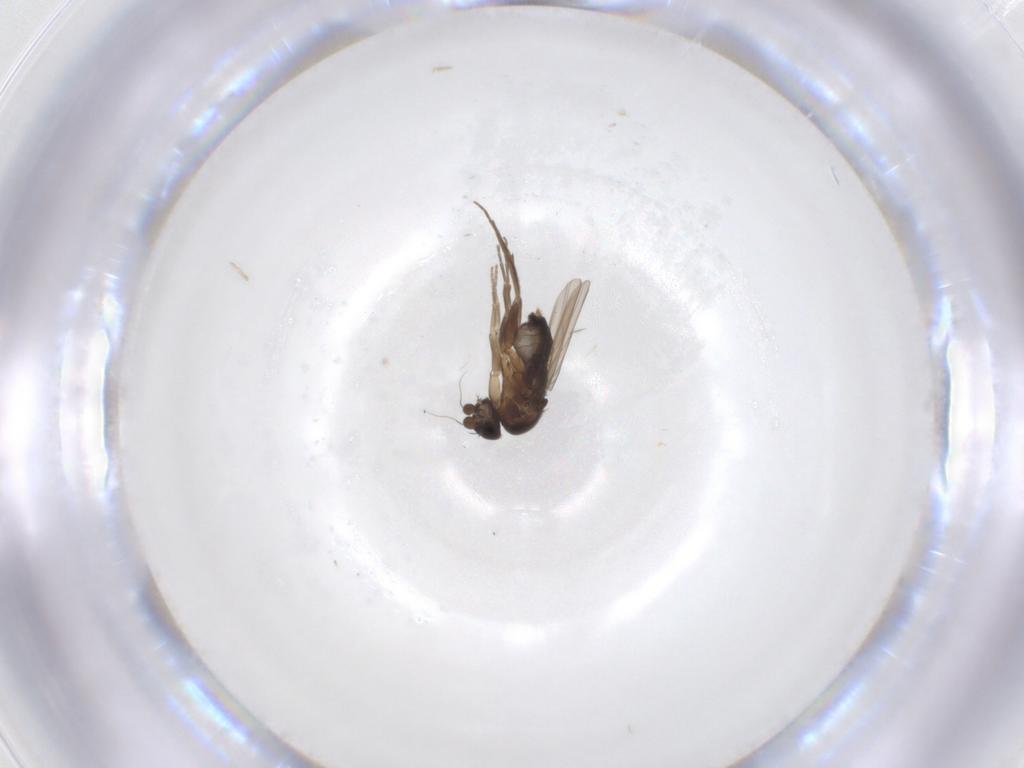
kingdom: Animalia
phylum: Arthropoda
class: Insecta
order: Diptera
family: Phoridae
